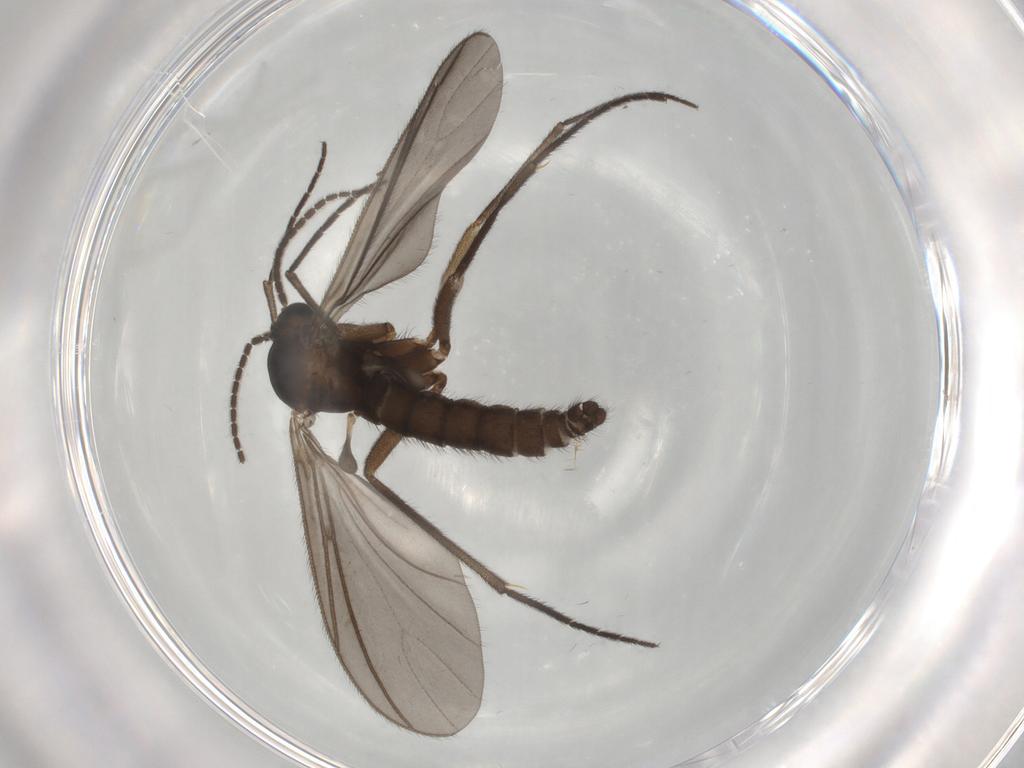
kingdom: Animalia
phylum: Arthropoda
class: Insecta
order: Diptera
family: Sciaridae
